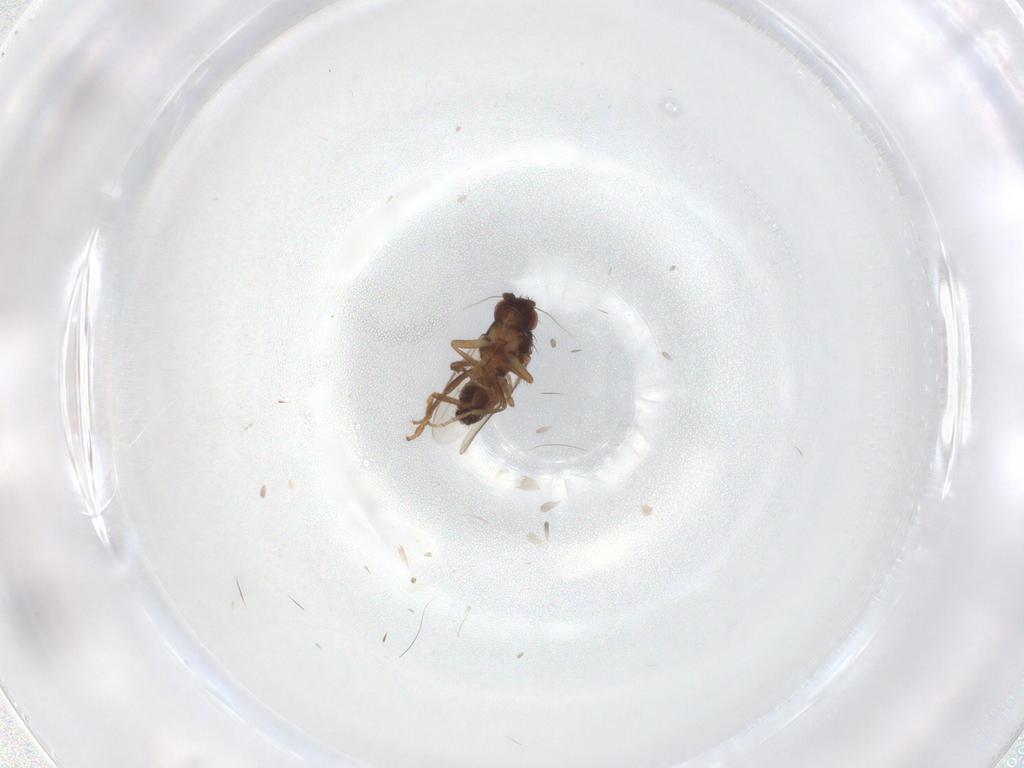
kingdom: Animalia
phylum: Arthropoda
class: Insecta
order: Diptera
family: Sphaeroceridae
